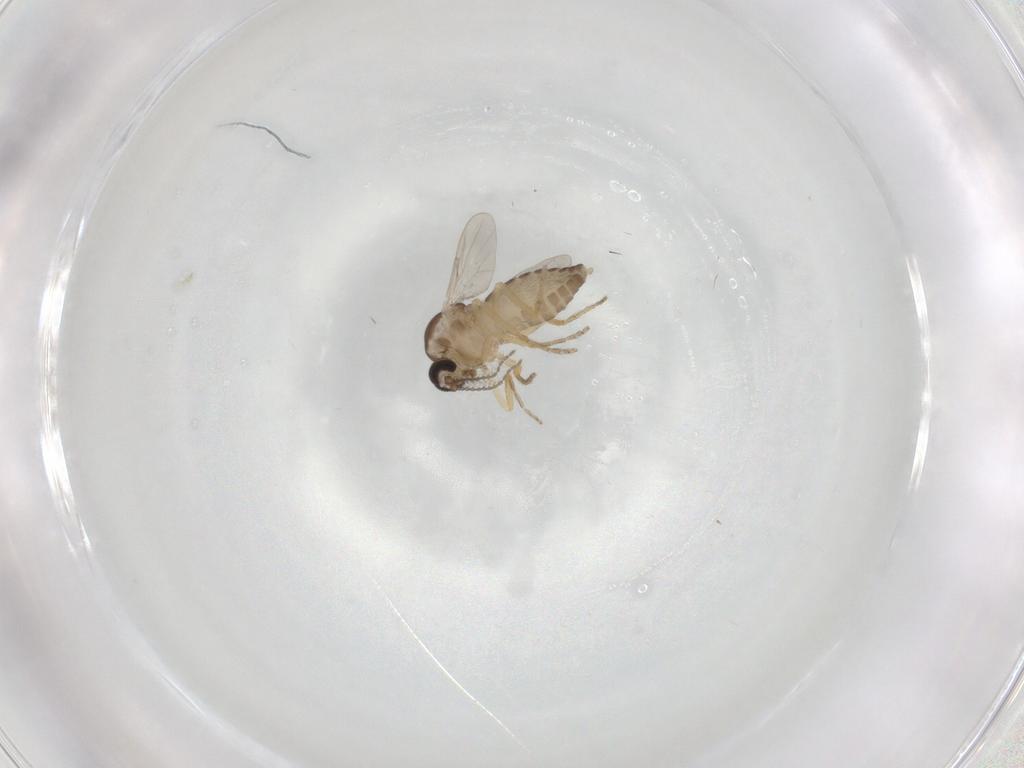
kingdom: Animalia
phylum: Arthropoda
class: Insecta
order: Diptera
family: Ceratopogonidae
